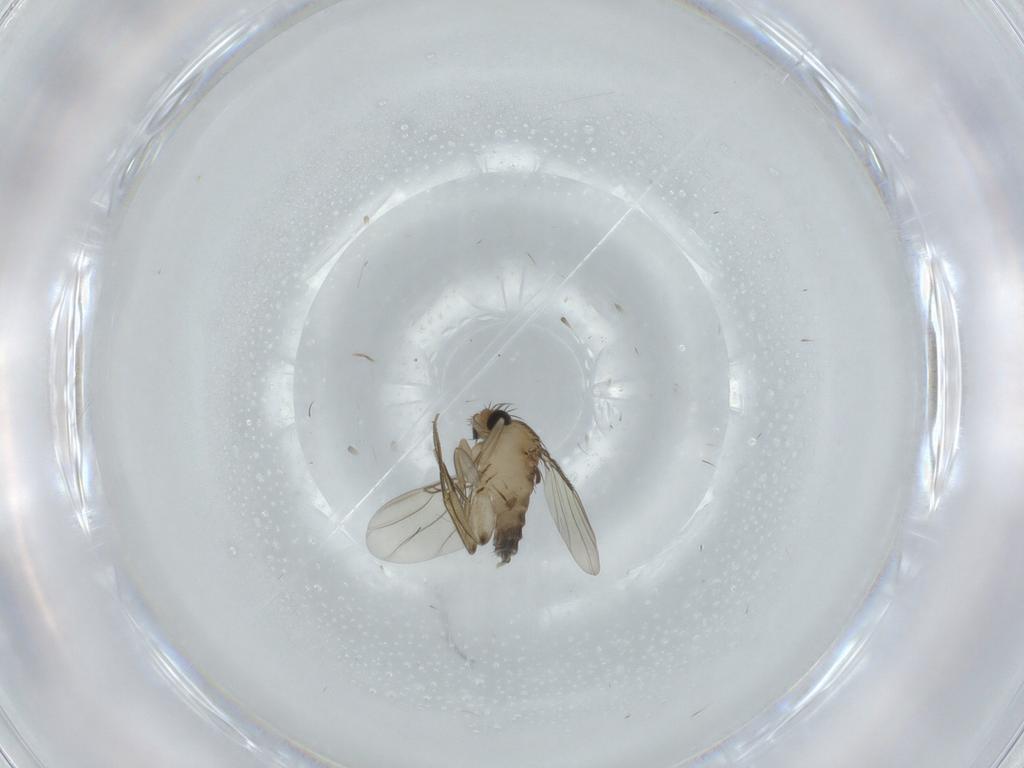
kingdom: Animalia
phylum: Arthropoda
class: Insecta
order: Diptera
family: Phoridae
